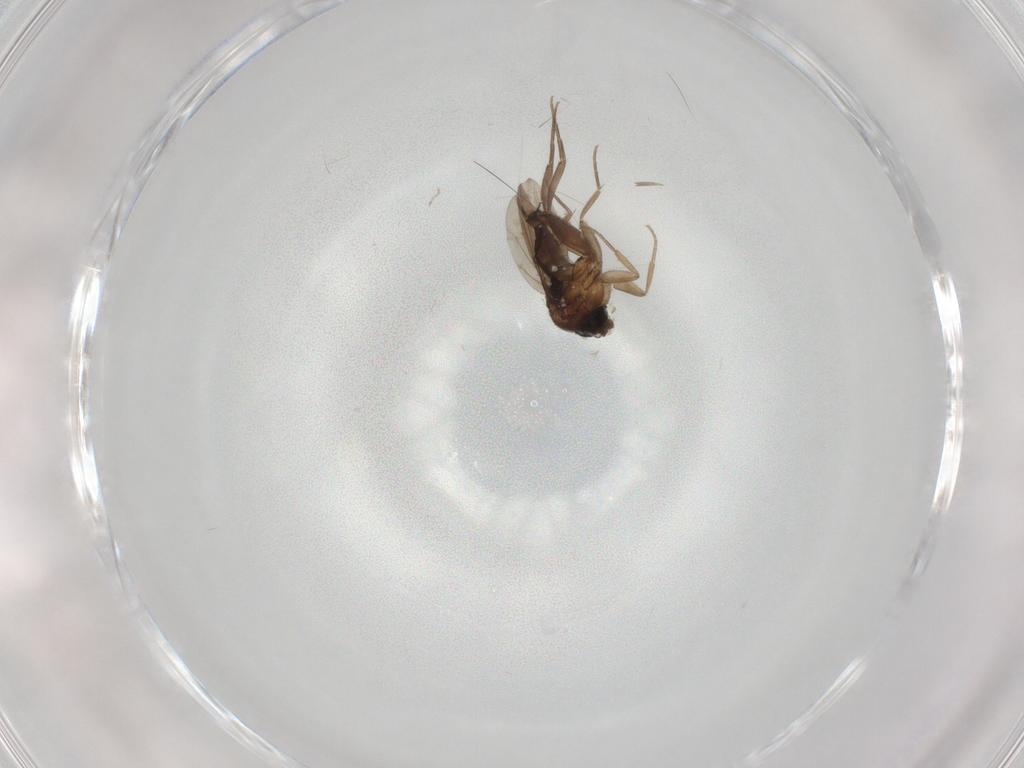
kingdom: Animalia
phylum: Arthropoda
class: Insecta
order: Diptera
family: Limoniidae
